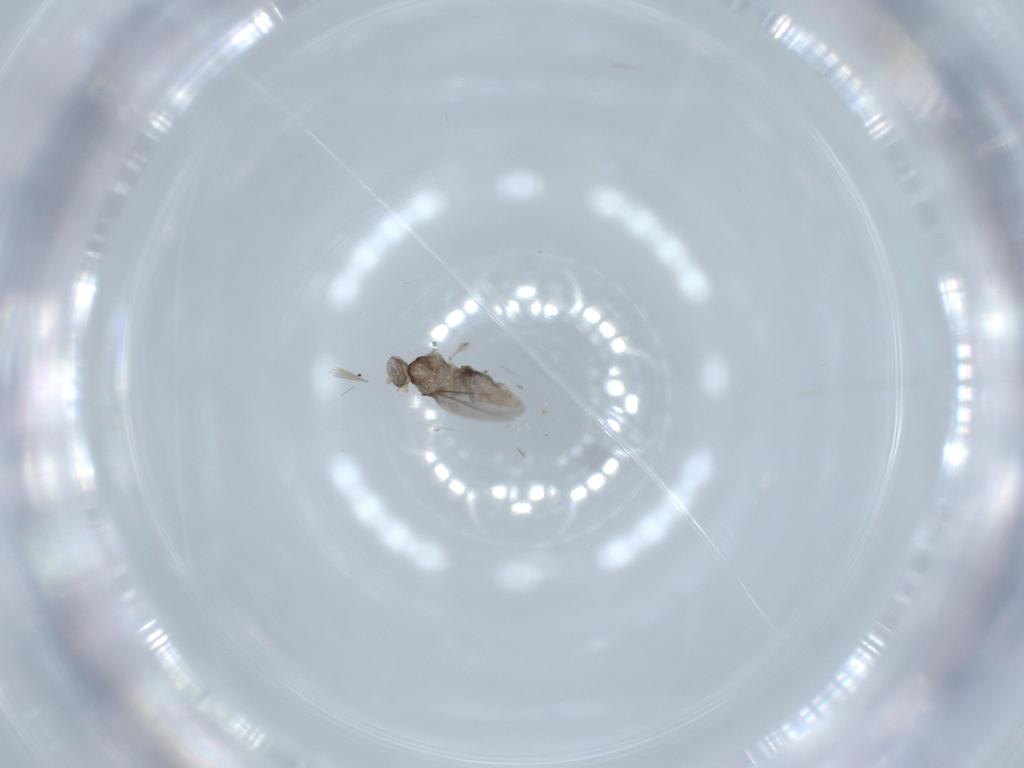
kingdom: Animalia
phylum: Arthropoda
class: Insecta
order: Diptera
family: Cecidomyiidae
